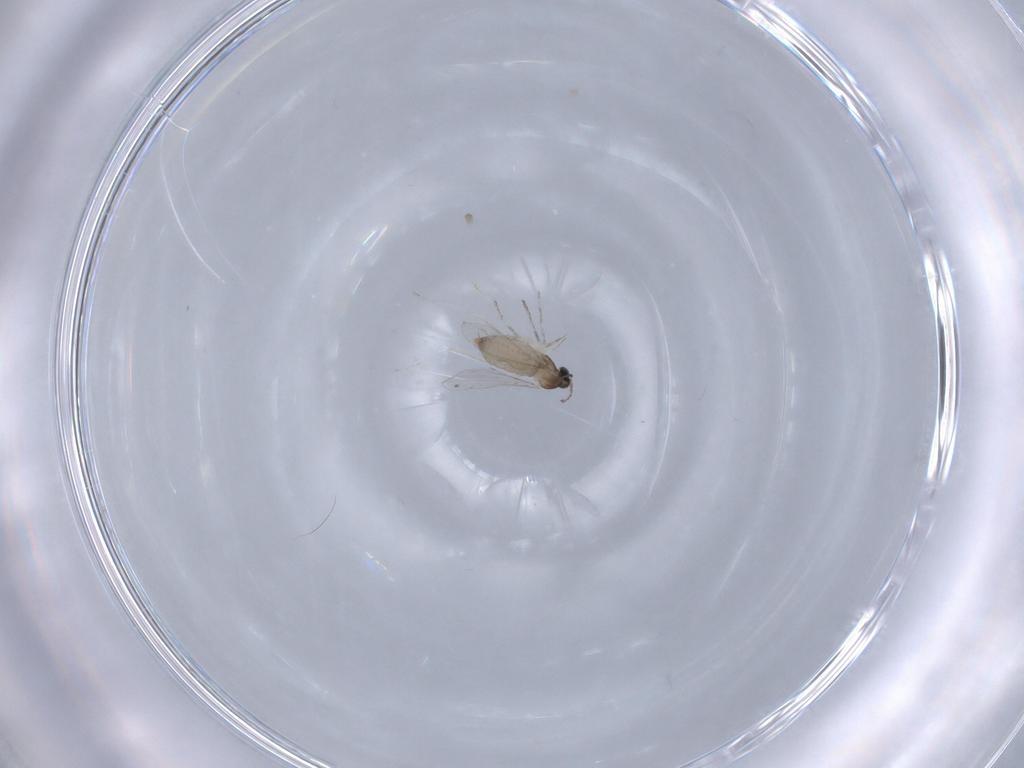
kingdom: Animalia
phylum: Arthropoda
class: Insecta
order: Diptera
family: Chironomidae
